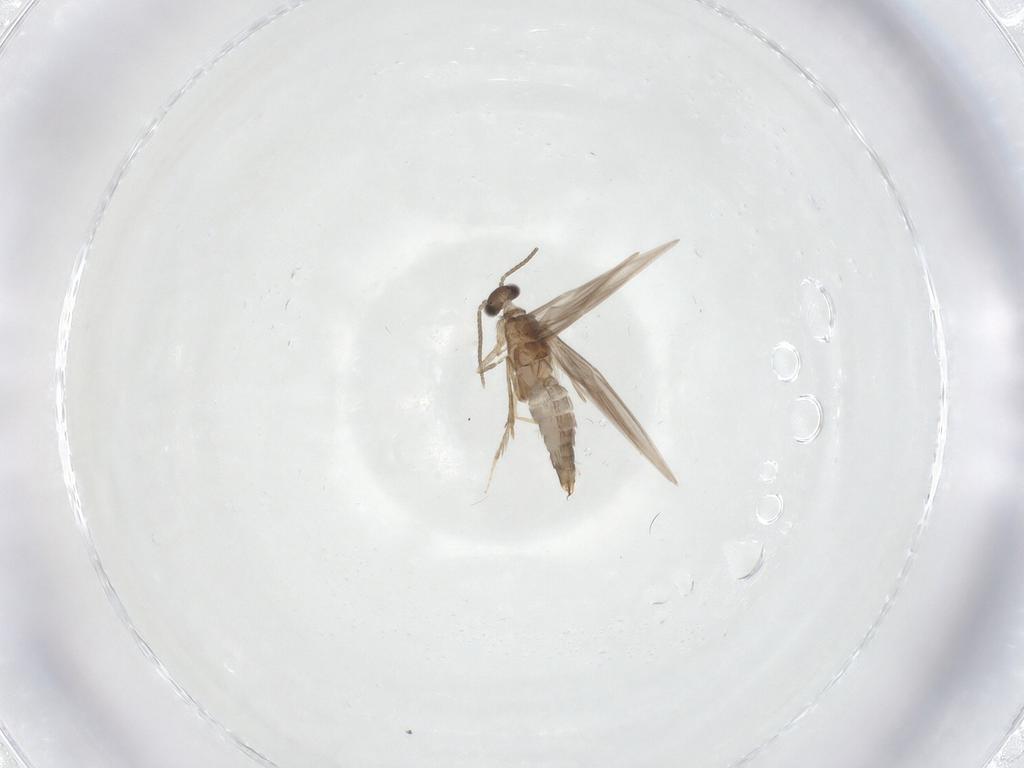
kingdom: Animalia
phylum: Arthropoda
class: Insecta
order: Trichoptera
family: Hydroptilidae
